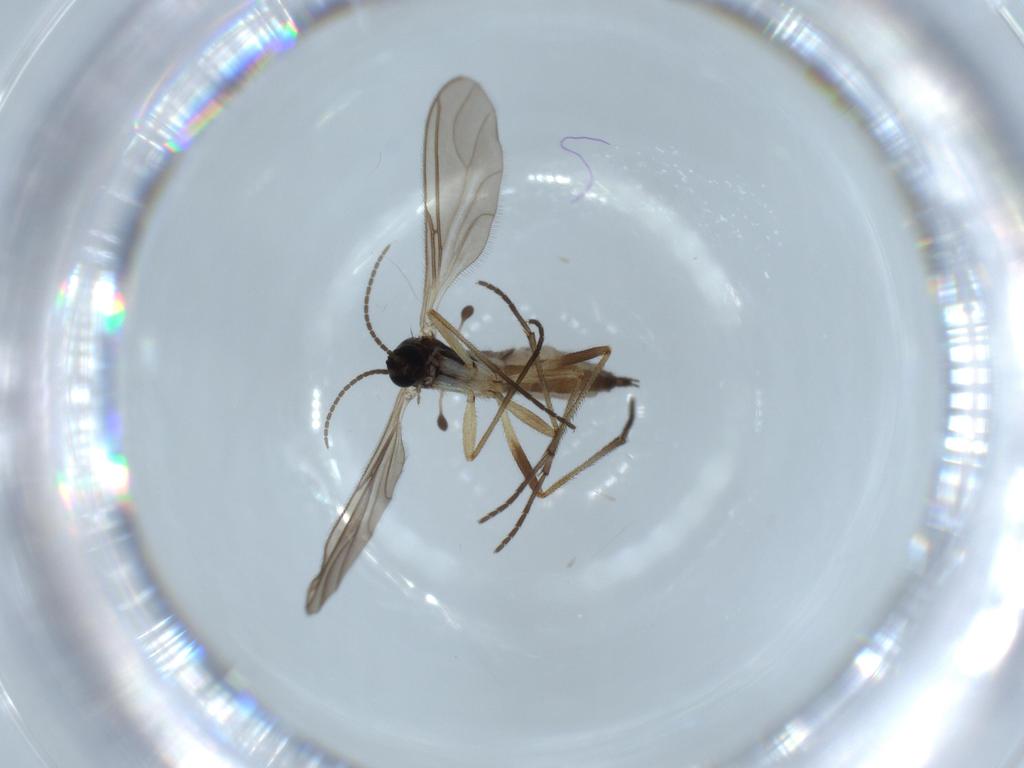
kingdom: Animalia
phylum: Arthropoda
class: Insecta
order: Diptera
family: Sciaridae
